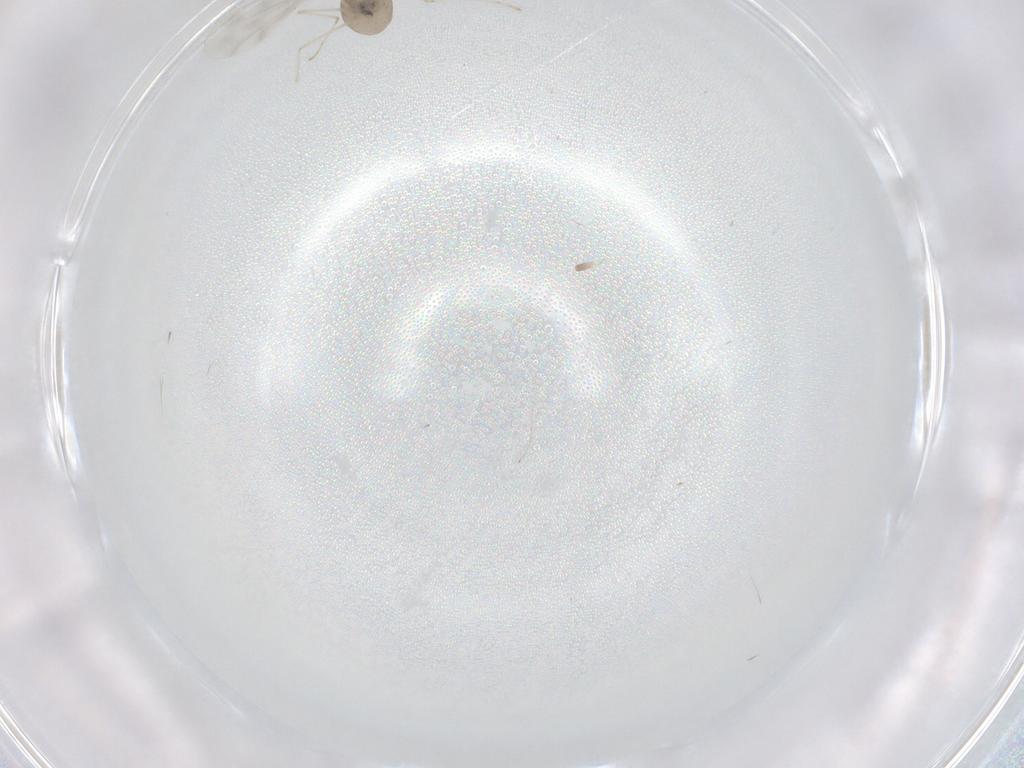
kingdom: Animalia
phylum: Arthropoda
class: Insecta
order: Diptera
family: Cecidomyiidae
